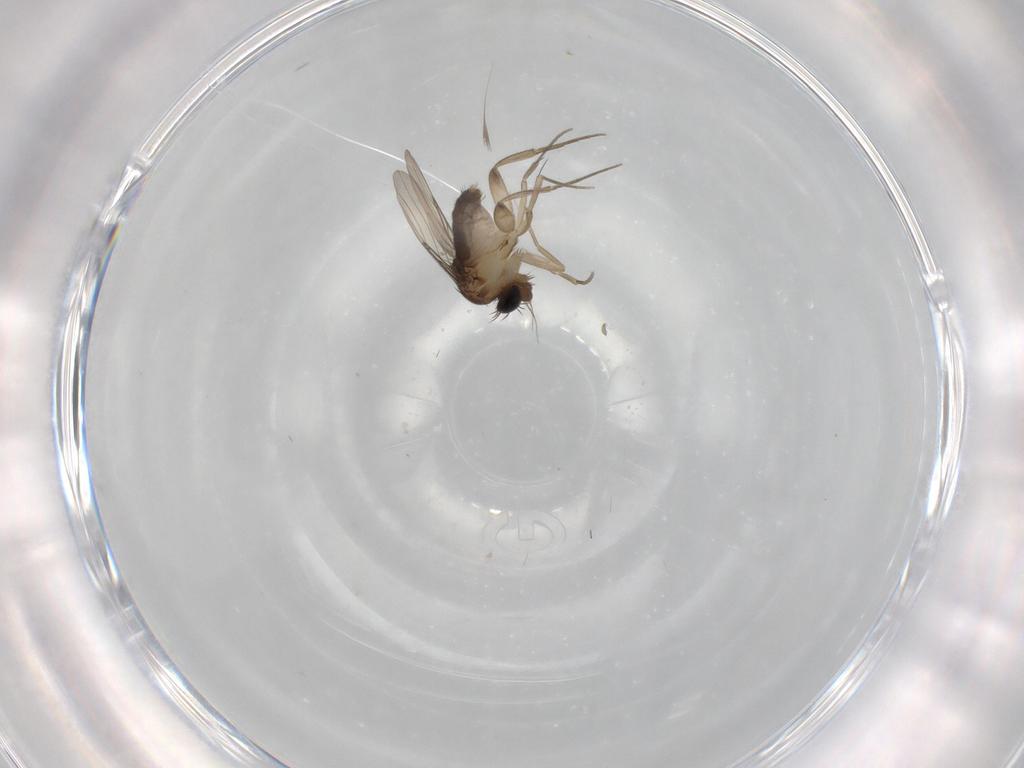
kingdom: Animalia
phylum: Arthropoda
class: Insecta
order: Diptera
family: Phoridae
